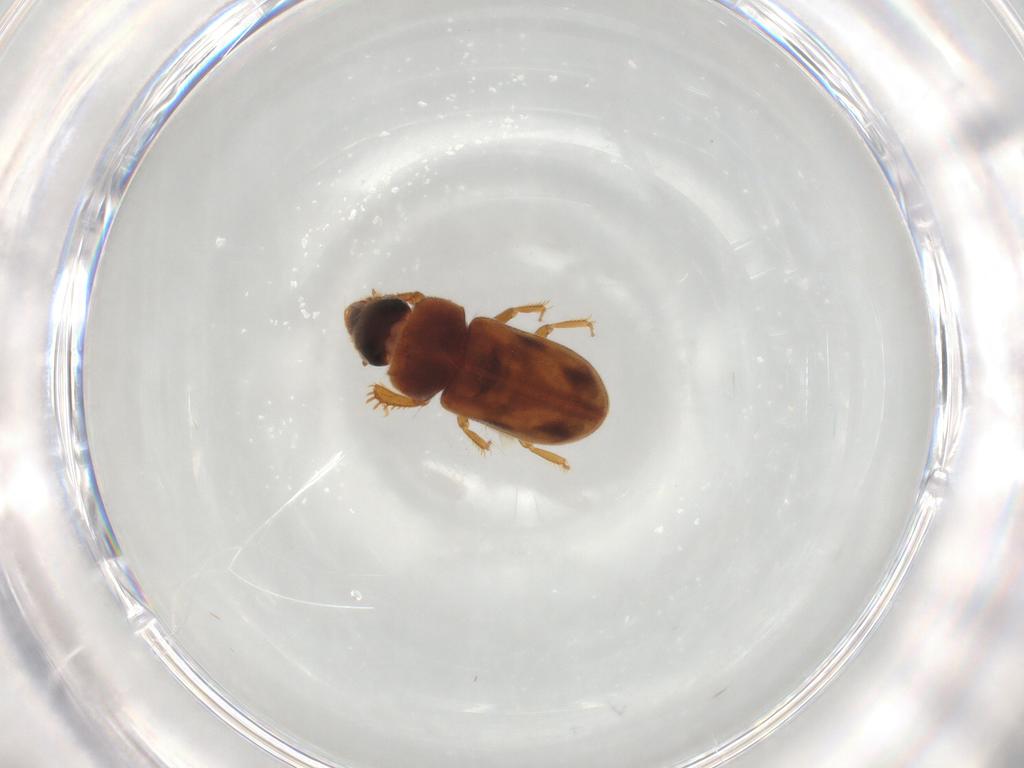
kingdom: Animalia
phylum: Arthropoda
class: Insecta
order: Coleoptera
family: Heteroceridae
